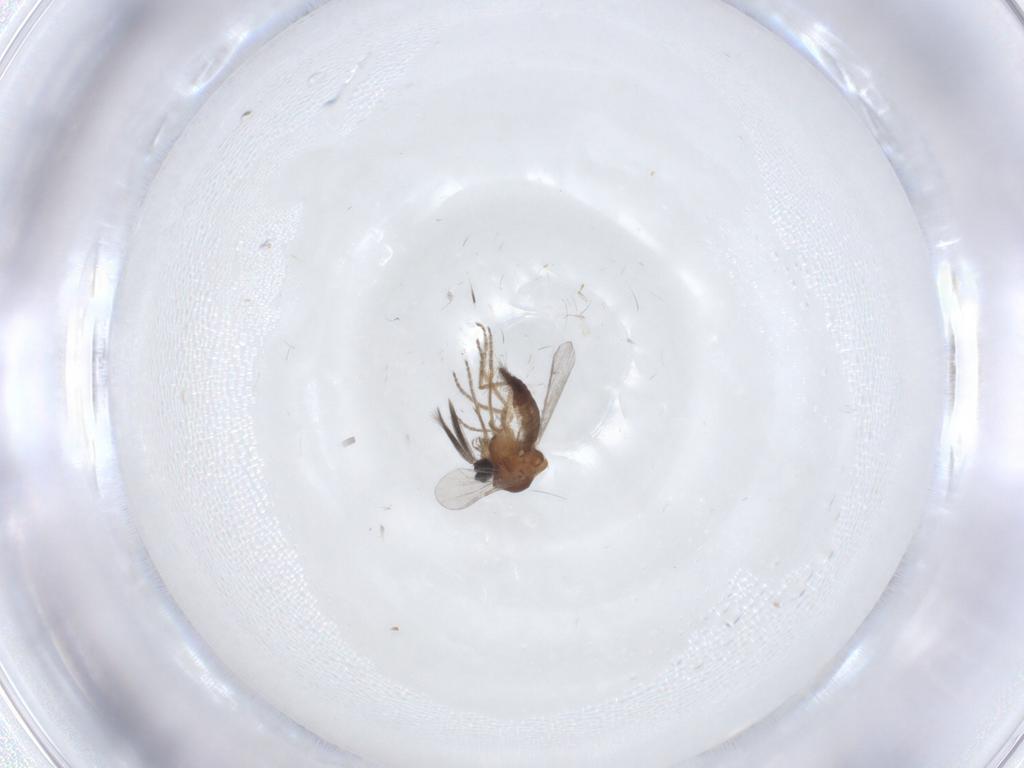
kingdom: Animalia
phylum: Arthropoda
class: Insecta
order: Diptera
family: Ceratopogonidae
